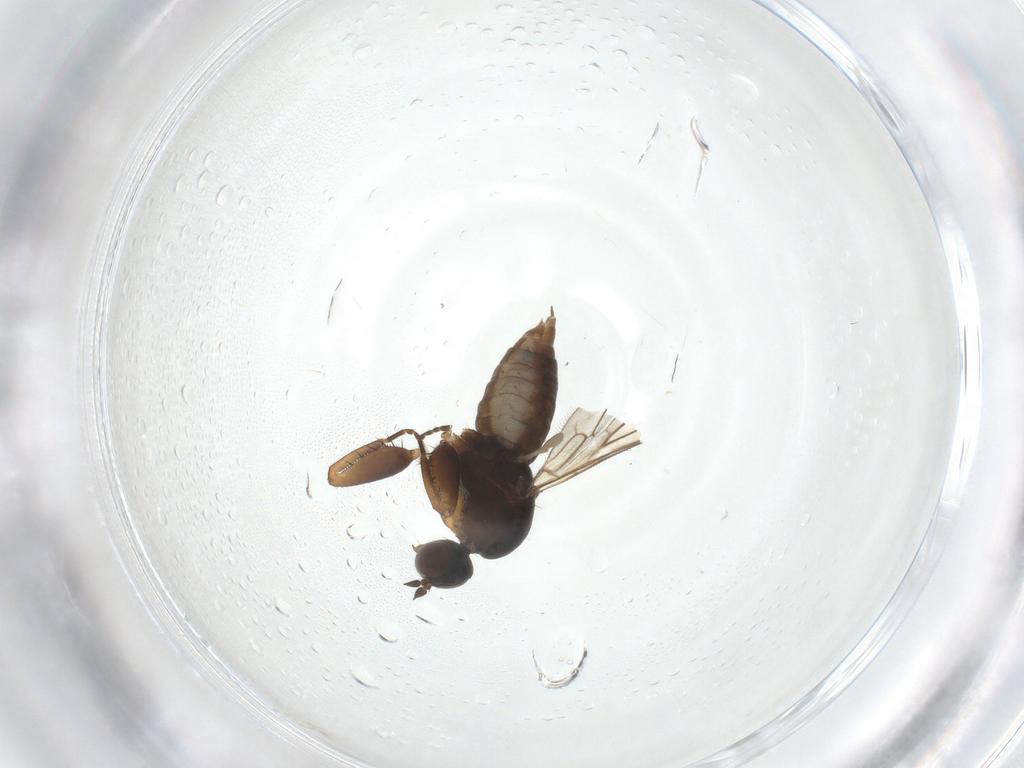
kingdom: Animalia
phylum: Arthropoda
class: Insecta
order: Diptera
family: Empididae
